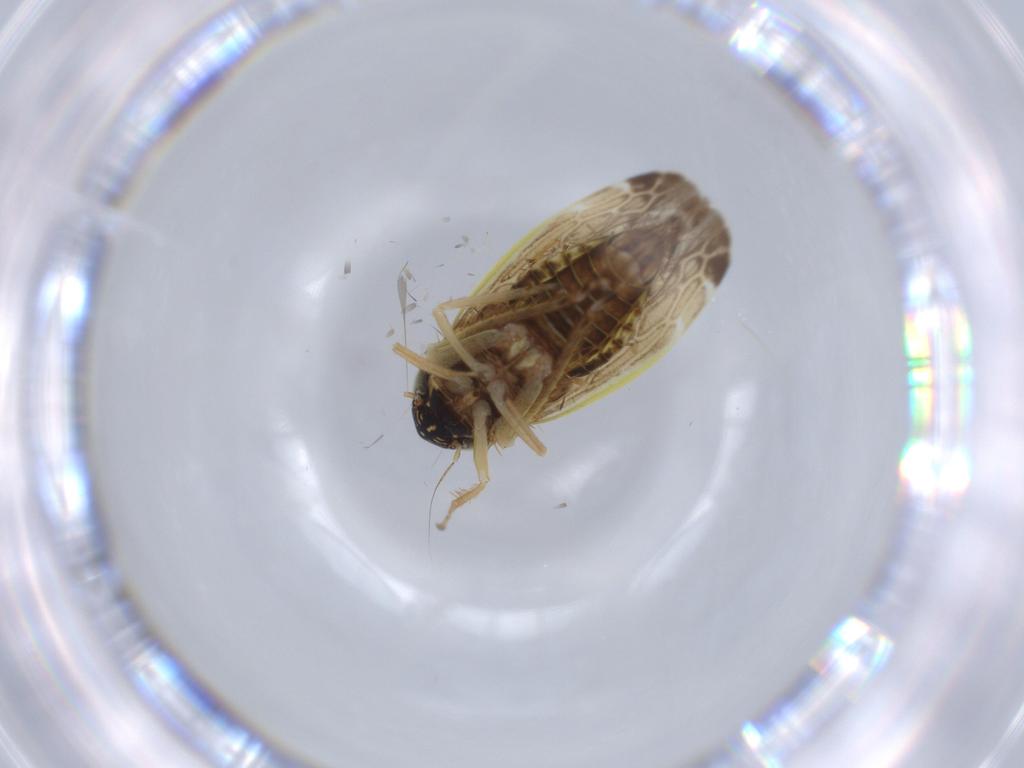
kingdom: Animalia
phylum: Arthropoda
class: Insecta
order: Hemiptera
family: Cicadellidae
